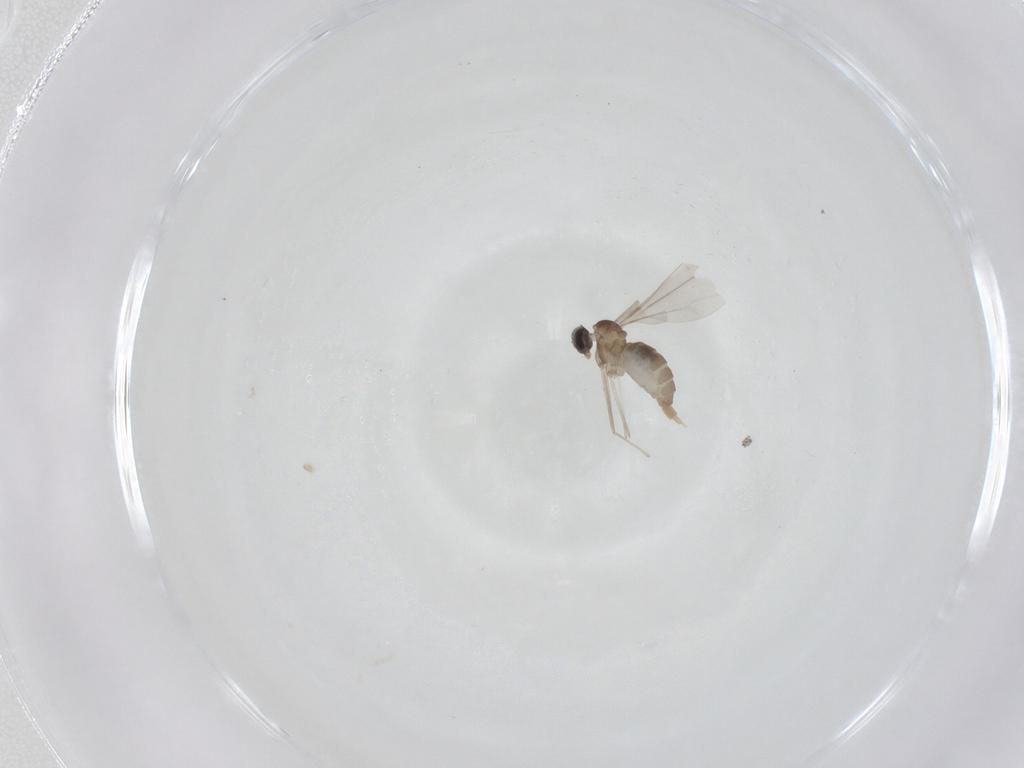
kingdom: Animalia
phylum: Arthropoda
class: Insecta
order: Diptera
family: Cecidomyiidae
